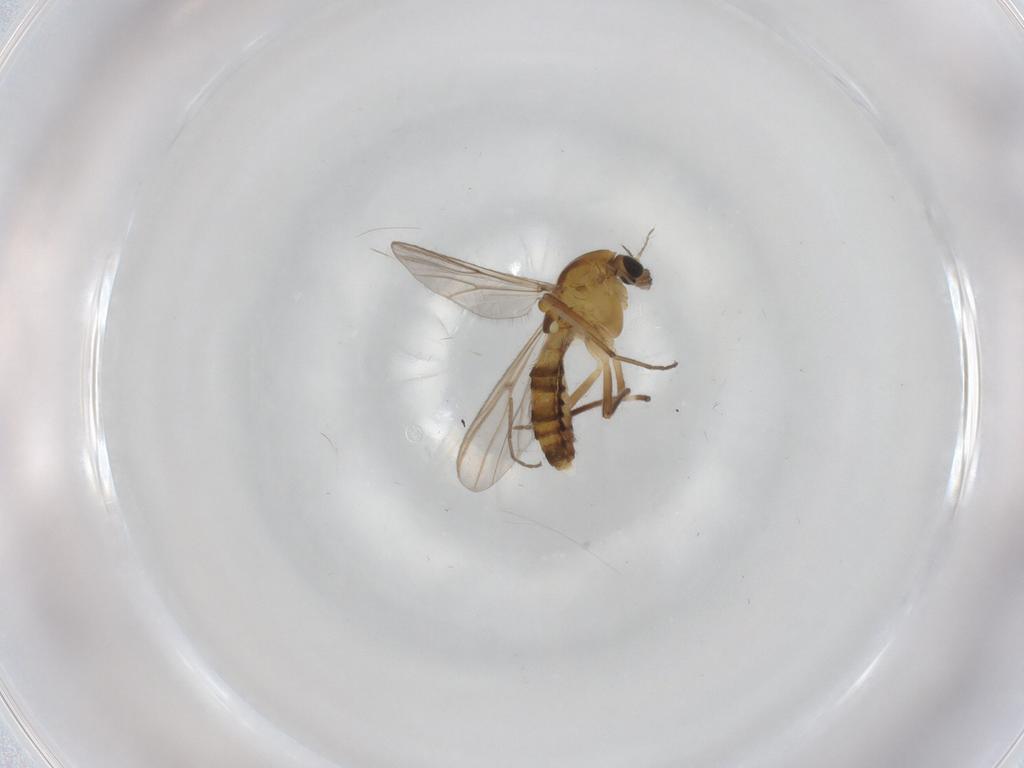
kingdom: Animalia
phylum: Arthropoda
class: Insecta
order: Diptera
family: Chironomidae
